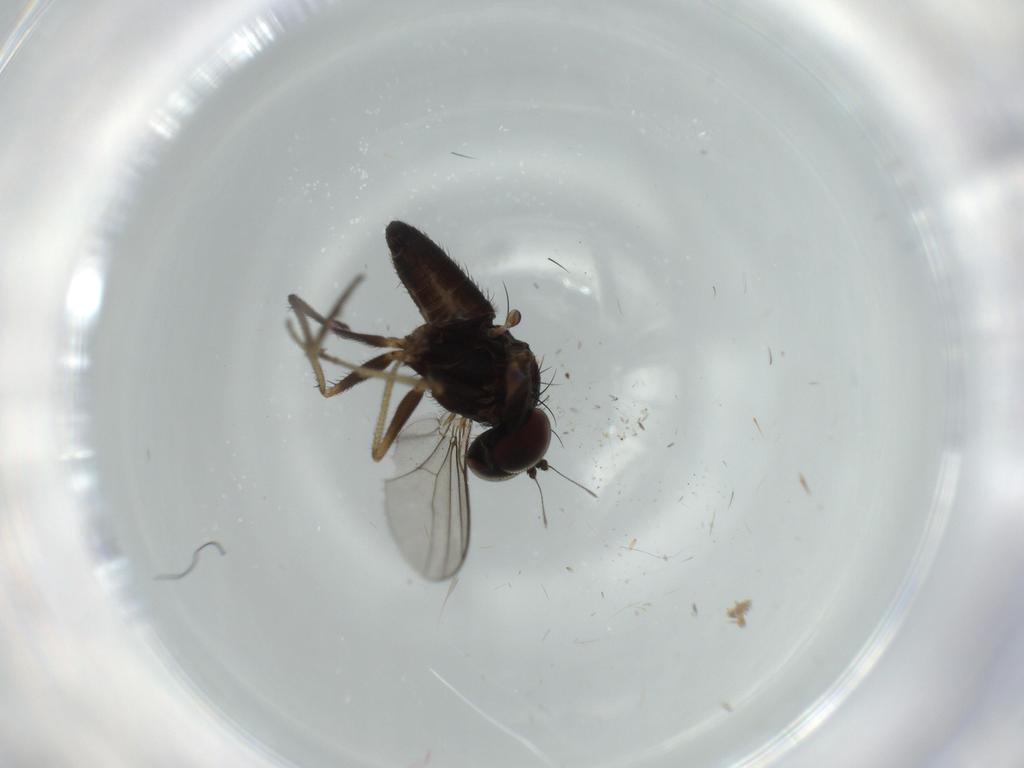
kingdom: Animalia
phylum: Arthropoda
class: Insecta
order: Diptera
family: Dolichopodidae
